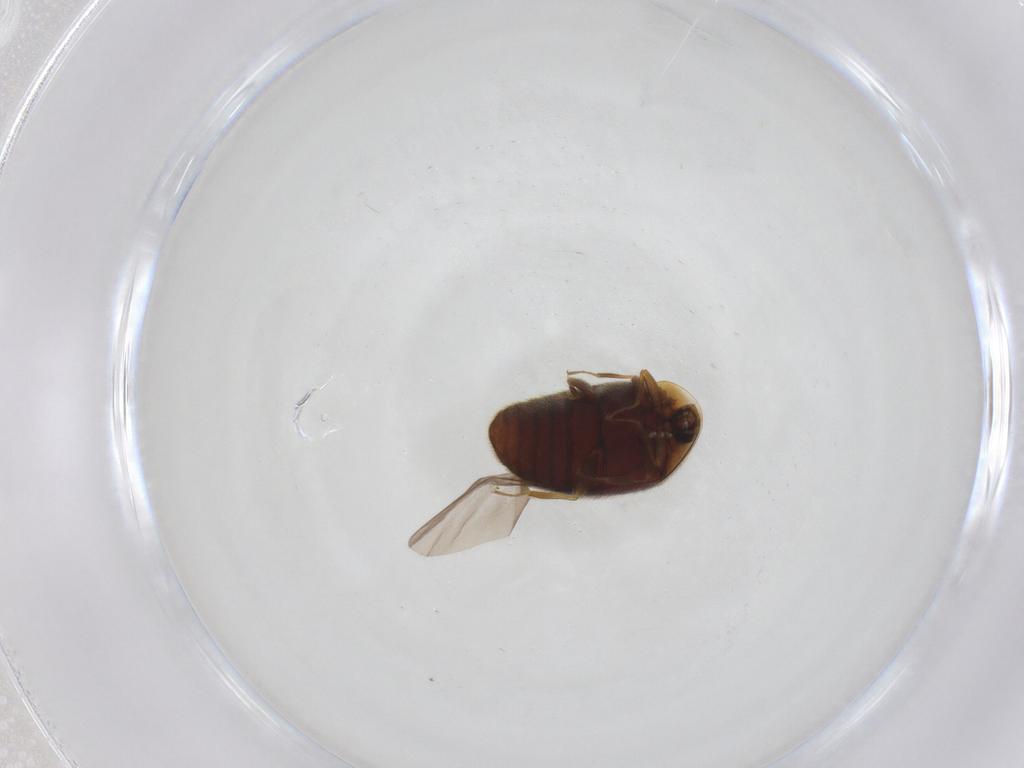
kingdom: Animalia
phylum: Arthropoda
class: Insecta
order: Coleoptera
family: Corylophidae
